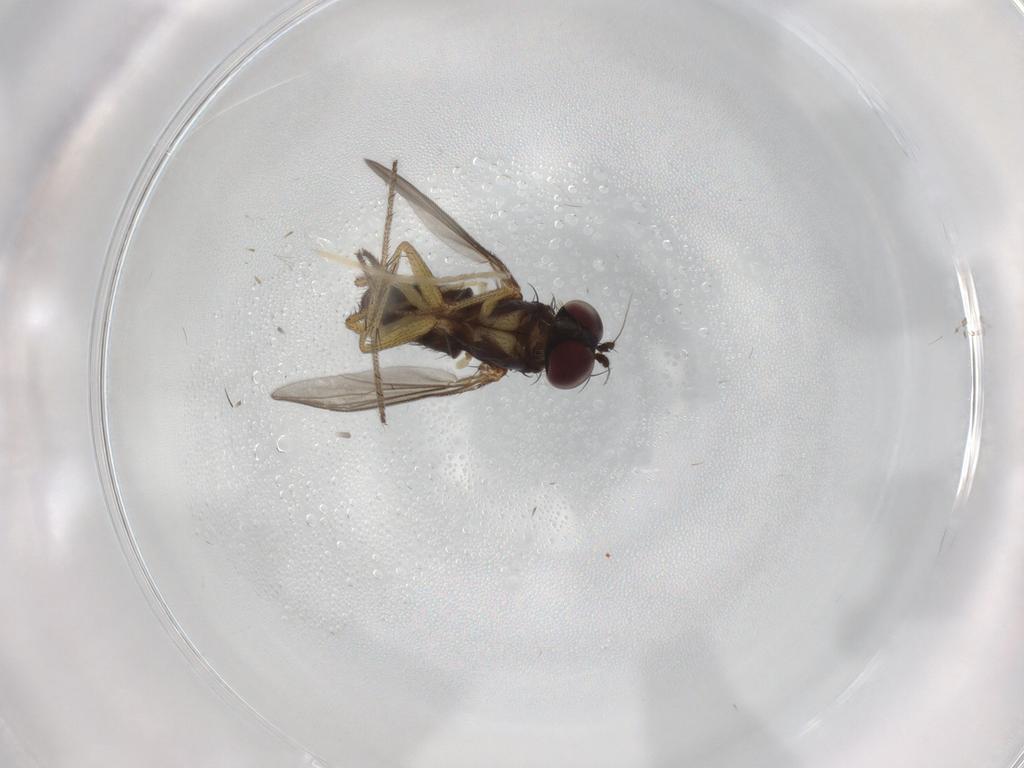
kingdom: Animalia
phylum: Arthropoda
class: Insecta
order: Diptera
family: Dolichopodidae
